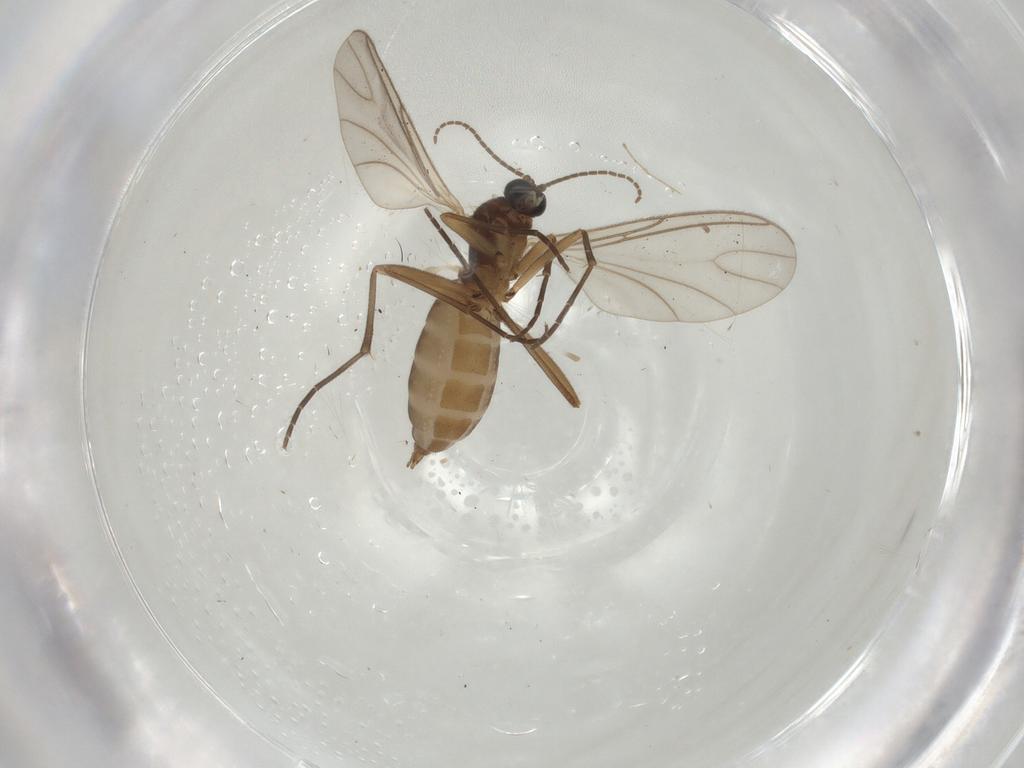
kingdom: Animalia
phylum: Arthropoda
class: Insecta
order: Diptera
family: Sciaridae
